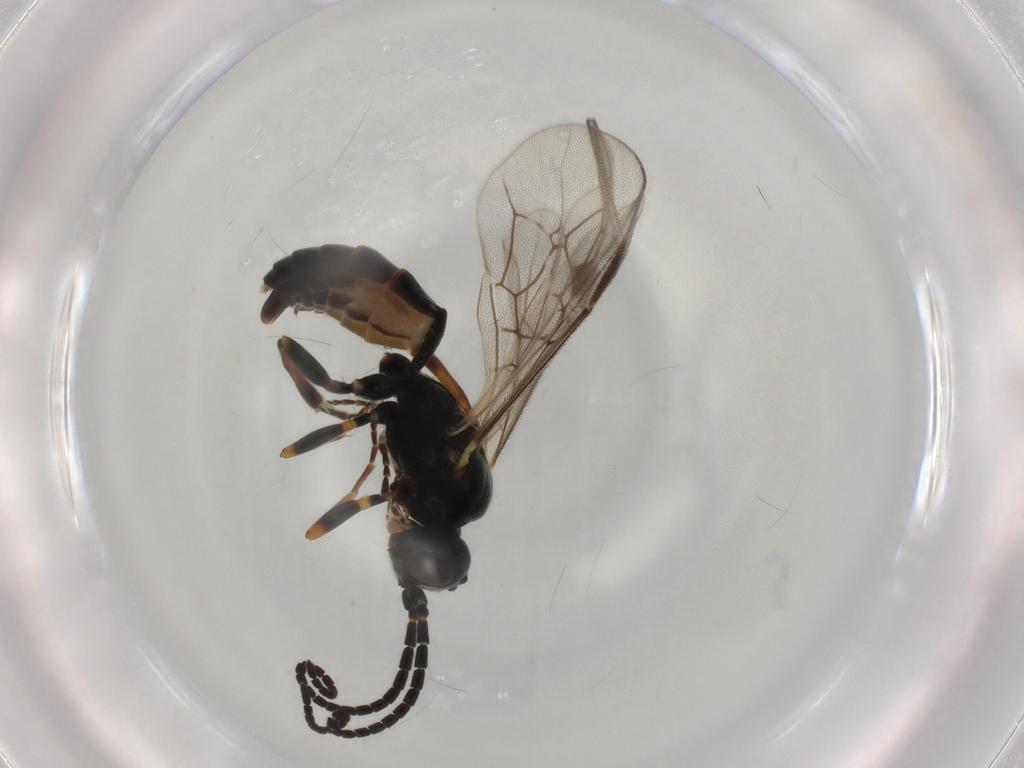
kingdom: Animalia
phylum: Arthropoda
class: Insecta
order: Hymenoptera
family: Ichneumonidae
